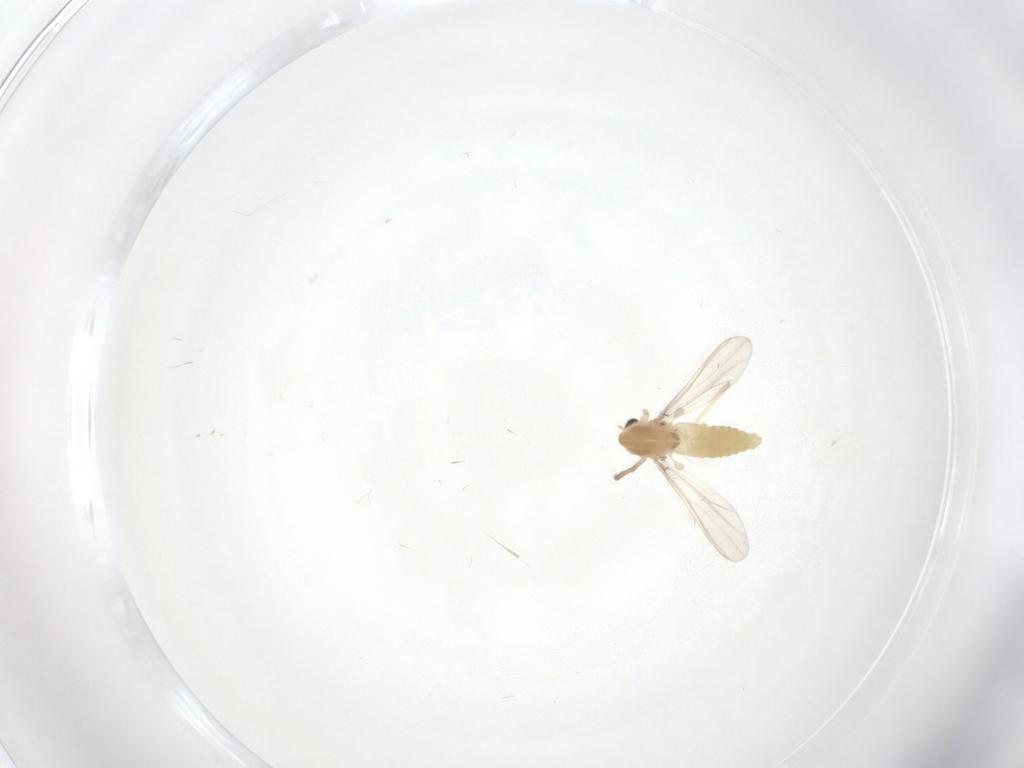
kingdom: Animalia
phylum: Arthropoda
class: Insecta
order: Diptera
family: Chironomidae
